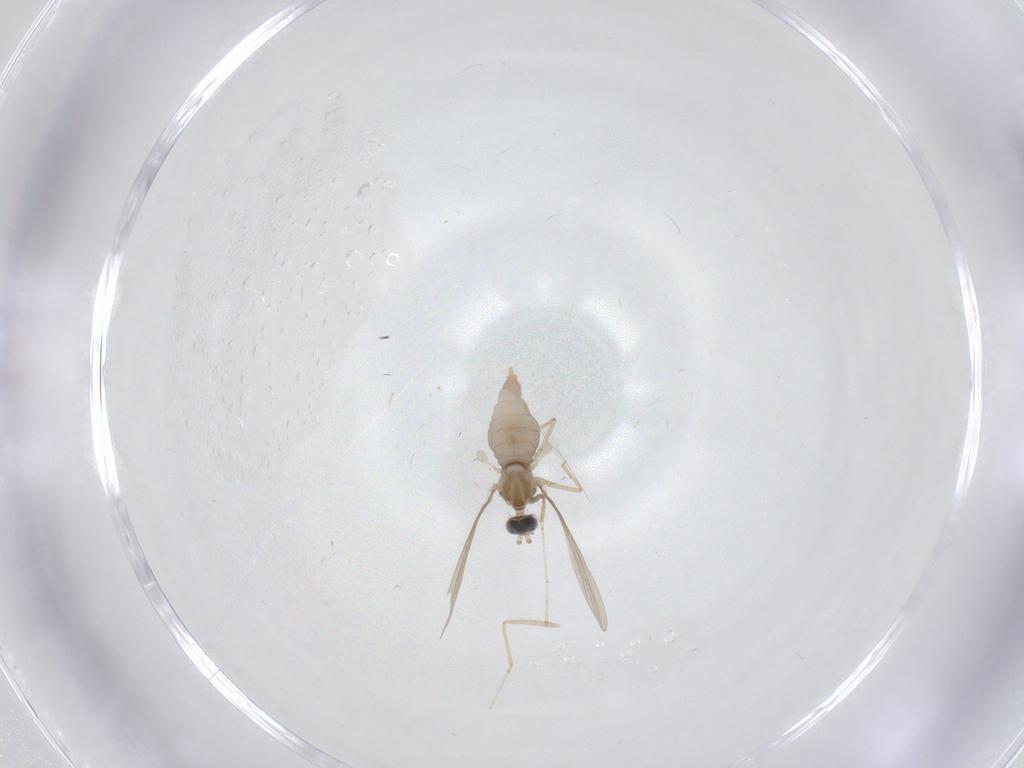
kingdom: Animalia
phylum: Arthropoda
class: Insecta
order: Diptera
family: Cecidomyiidae
